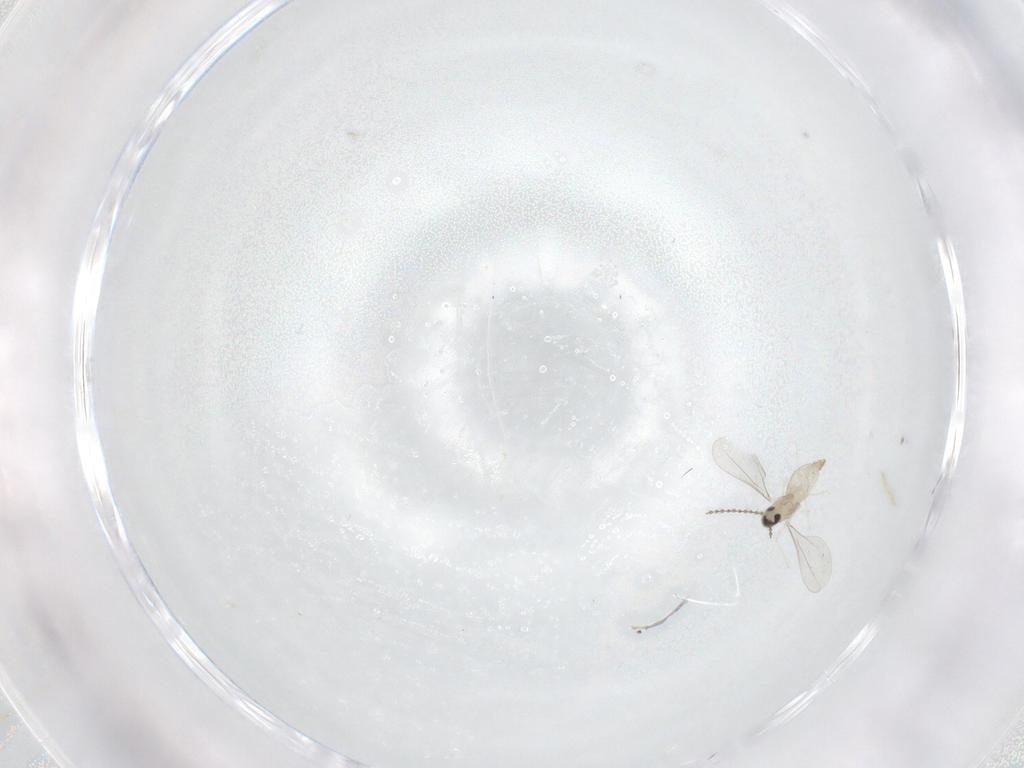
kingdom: Animalia
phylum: Arthropoda
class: Insecta
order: Diptera
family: Cecidomyiidae
